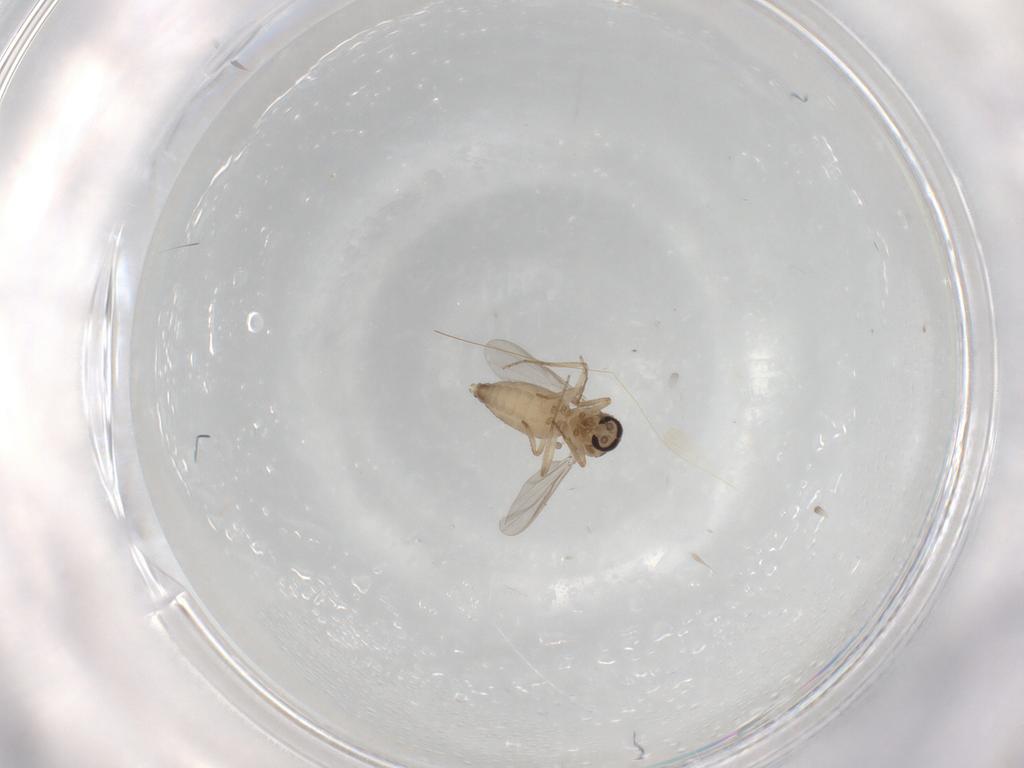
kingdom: Animalia
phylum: Arthropoda
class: Insecta
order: Diptera
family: Ceratopogonidae
